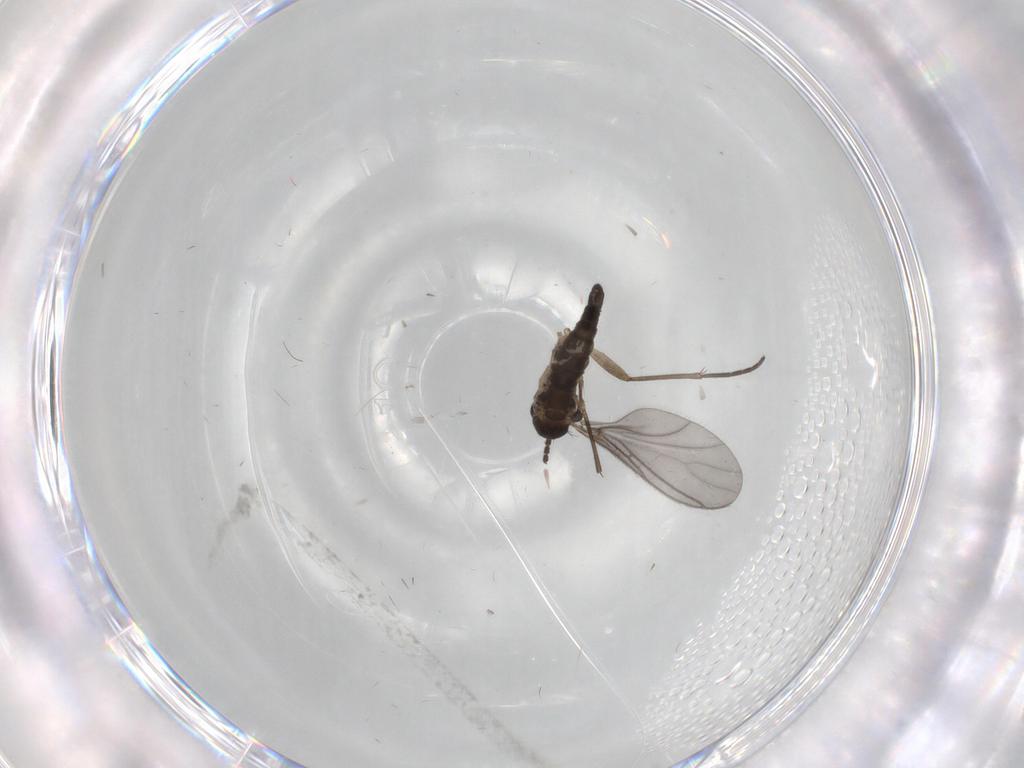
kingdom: Animalia
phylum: Arthropoda
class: Insecta
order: Diptera
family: Sciaridae
